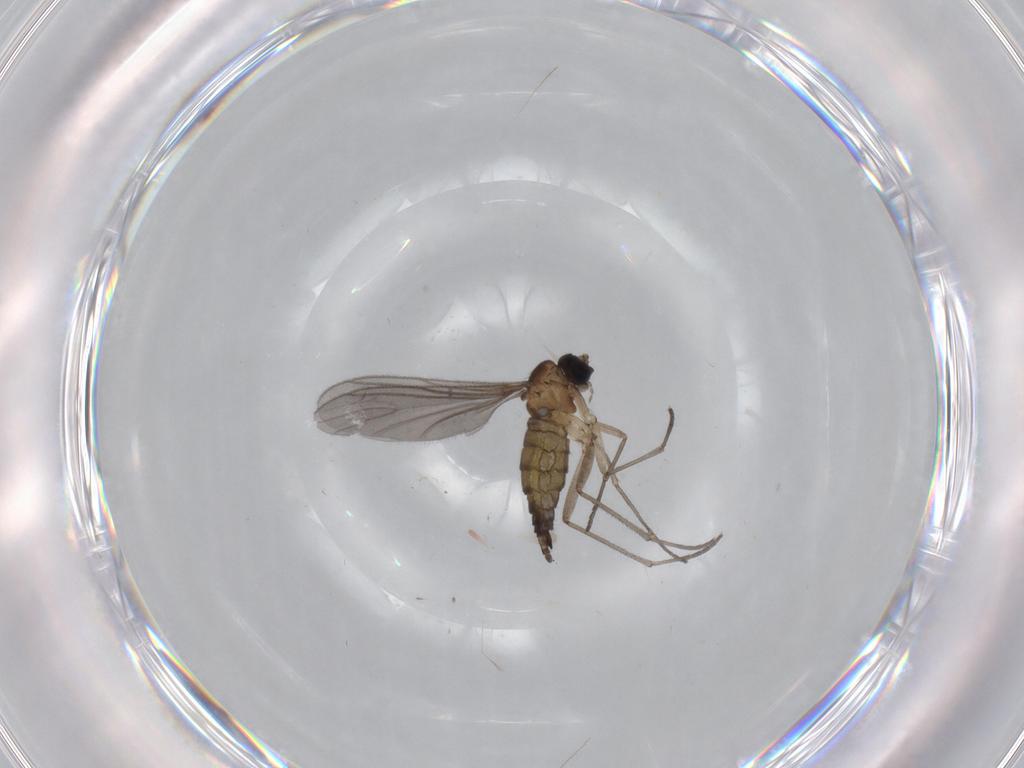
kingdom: Animalia
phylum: Arthropoda
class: Insecta
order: Diptera
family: Sciaridae
